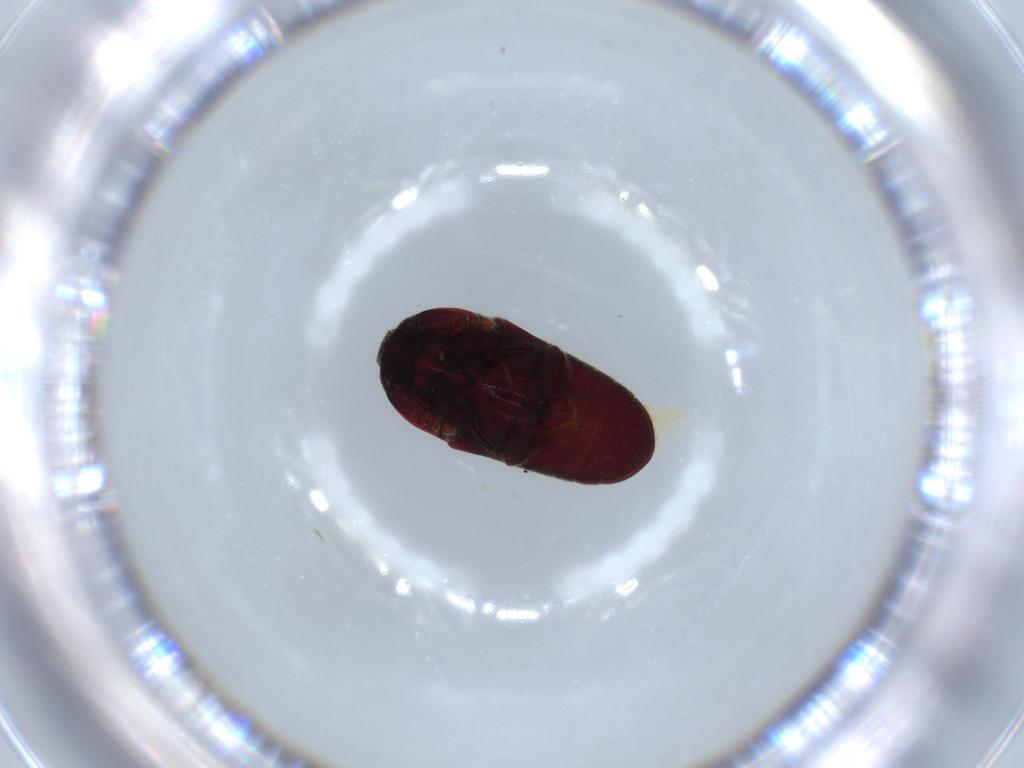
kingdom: Animalia
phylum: Arthropoda
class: Insecta
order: Coleoptera
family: Throscidae
